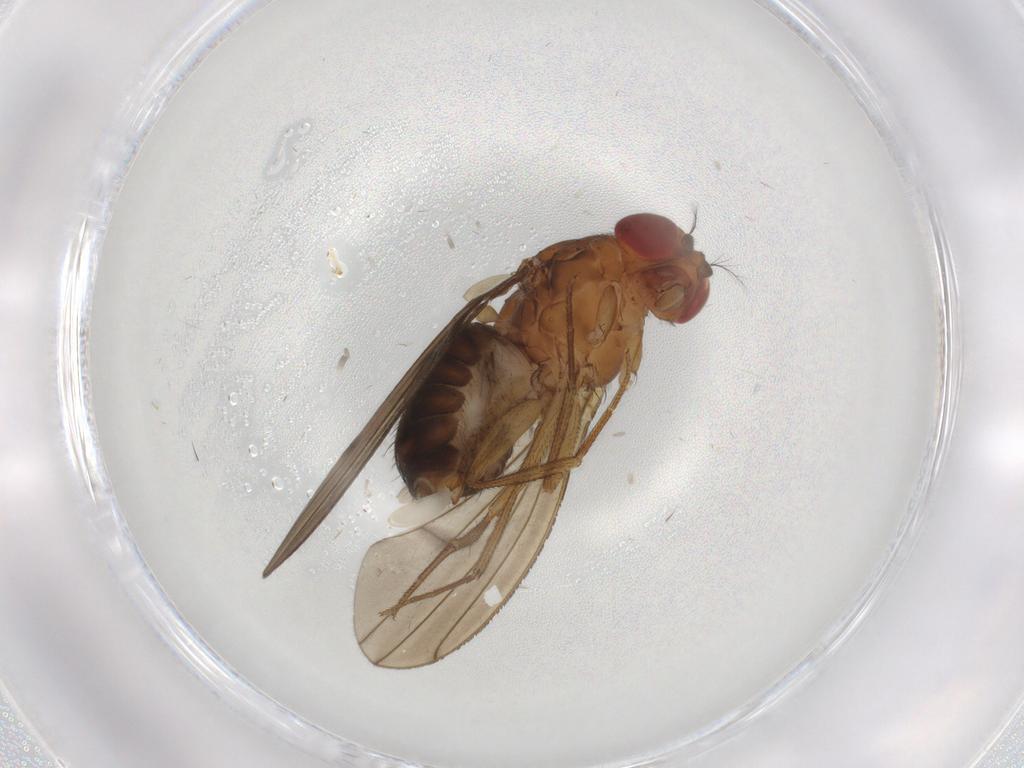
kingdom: Animalia
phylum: Arthropoda
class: Insecta
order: Diptera
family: Drosophilidae
